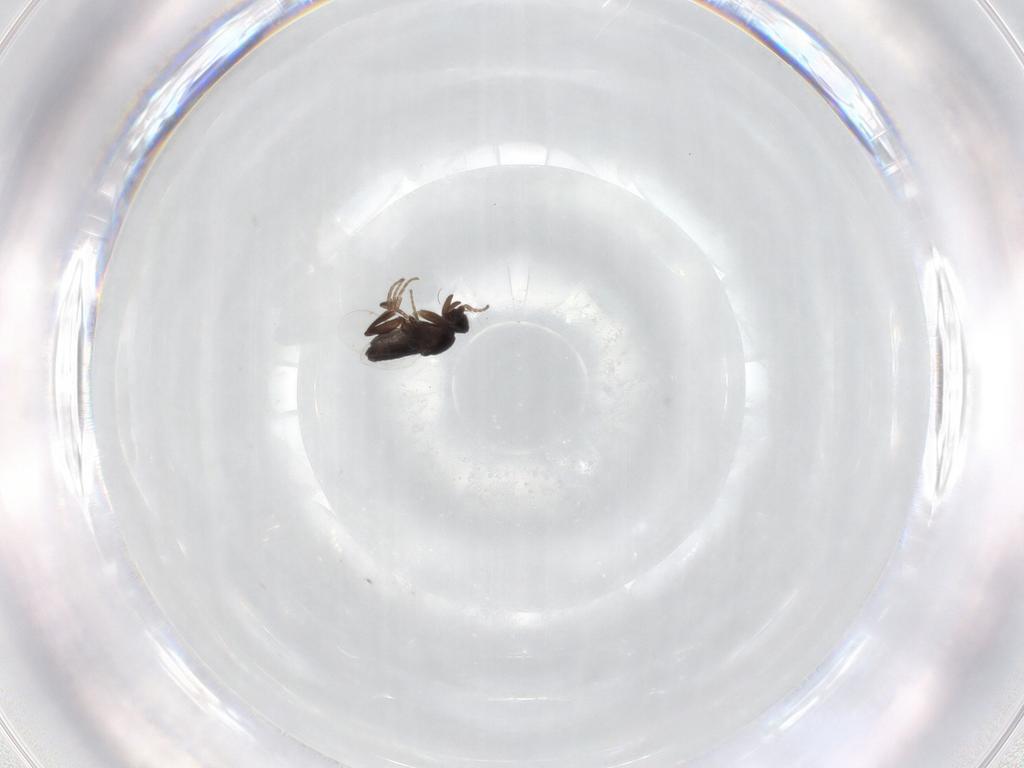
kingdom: Animalia
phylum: Arthropoda
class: Insecta
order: Diptera
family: Phoridae
